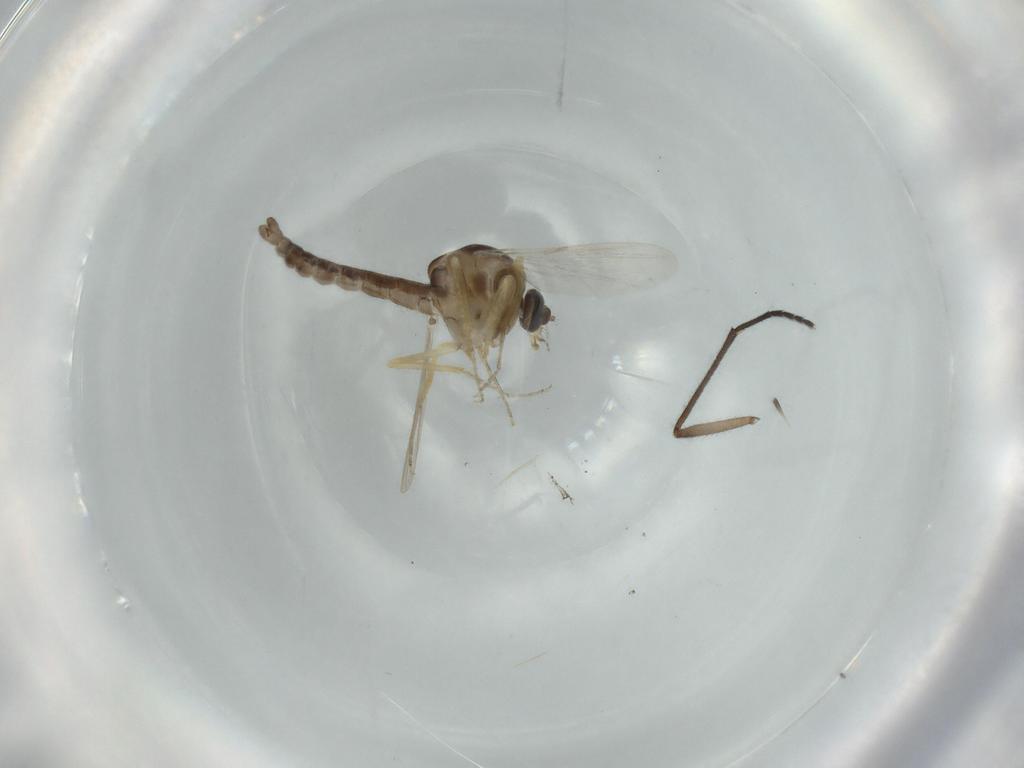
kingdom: Animalia
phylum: Arthropoda
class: Insecta
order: Diptera
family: Ceratopogonidae
